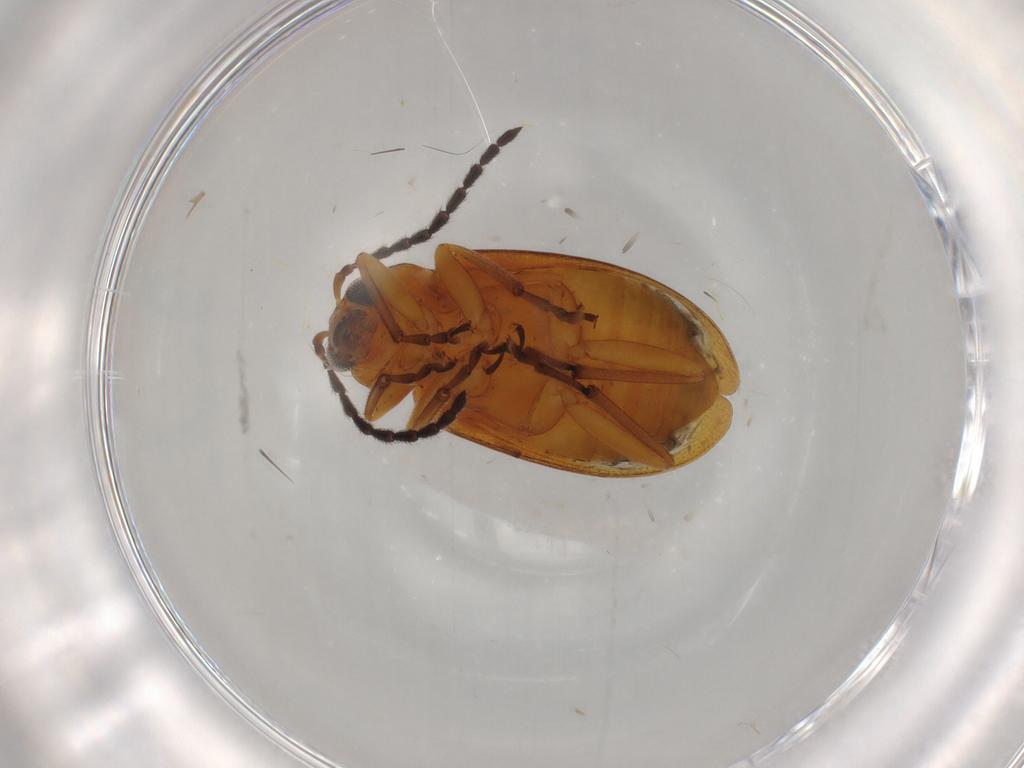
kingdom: Animalia
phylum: Arthropoda
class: Insecta
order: Coleoptera
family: Chrysomelidae
